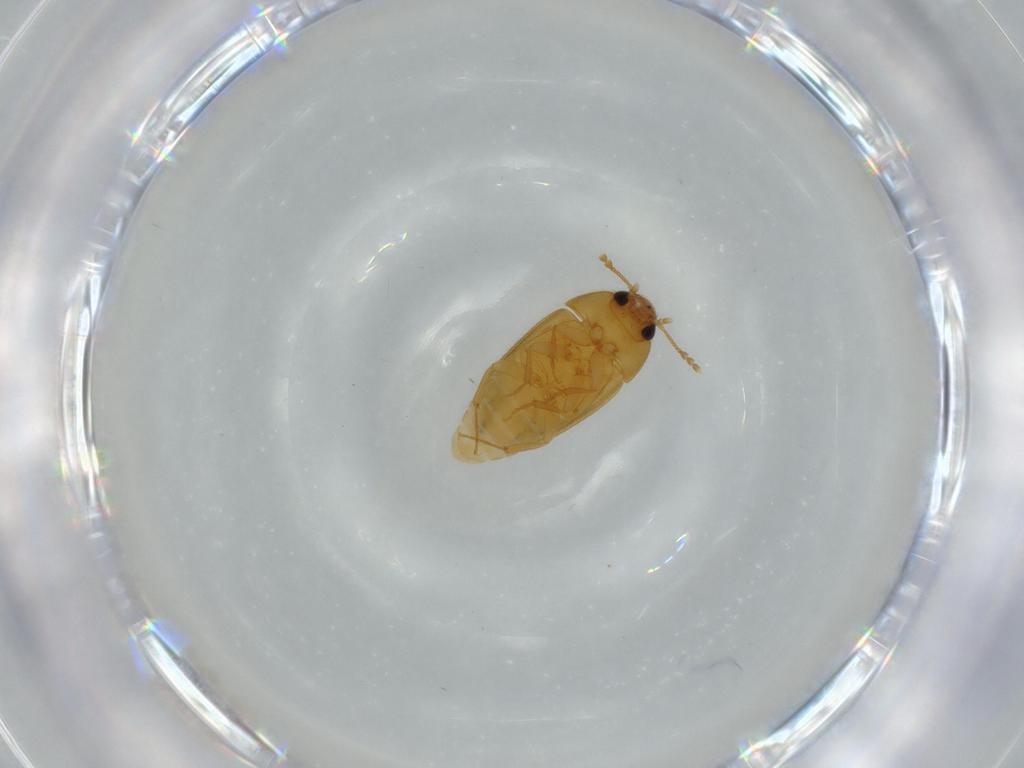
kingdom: Animalia
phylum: Arthropoda
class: Insecta
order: Coleoptera
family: Mycetophagidae
